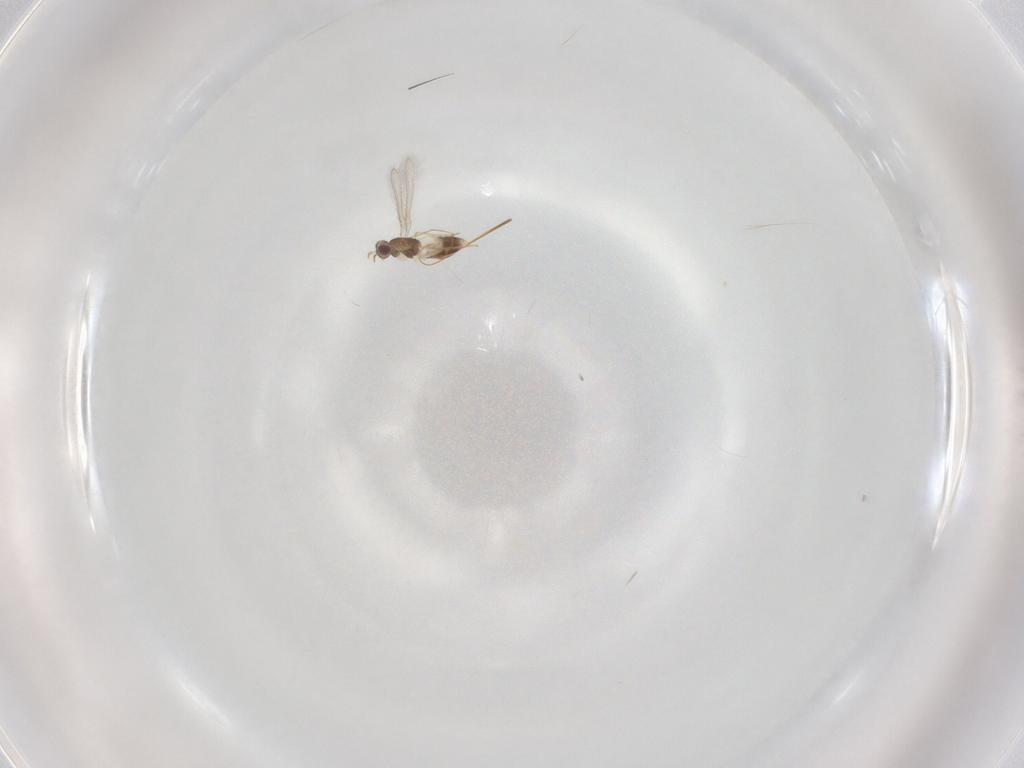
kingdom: Animalia
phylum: Arthropoda
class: Insecta
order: Hymenoptera
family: Mymaridae
